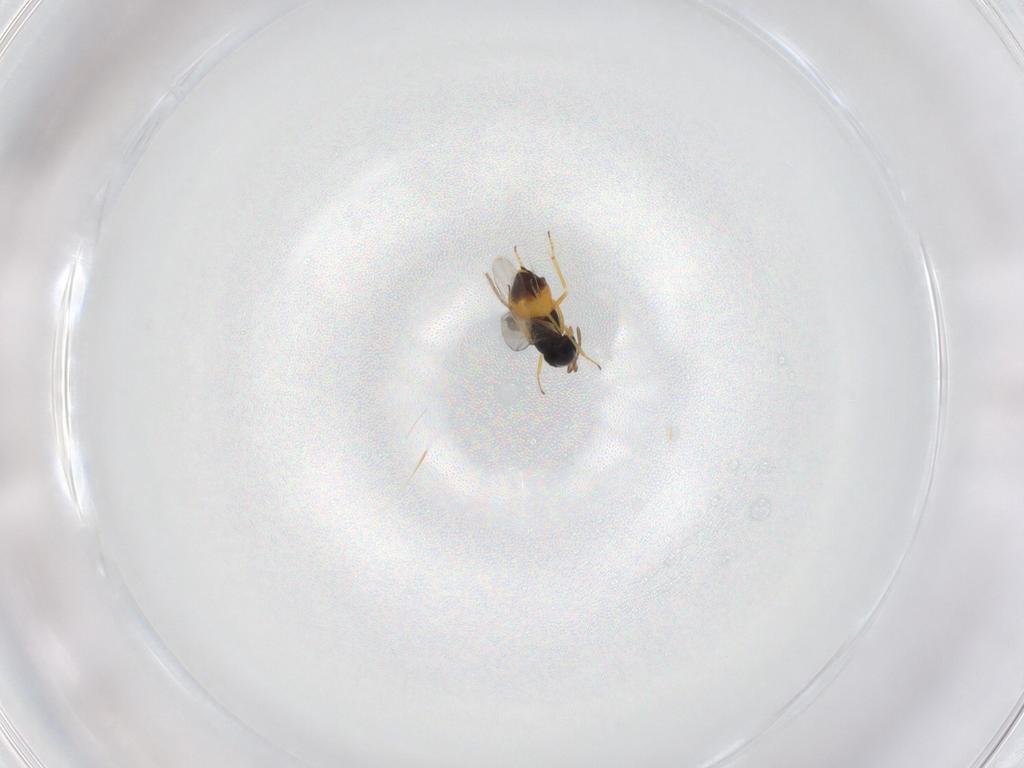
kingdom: Animalia
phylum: Arthropoda
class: Insecta
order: Hymenoptera
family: Encyrtidae
